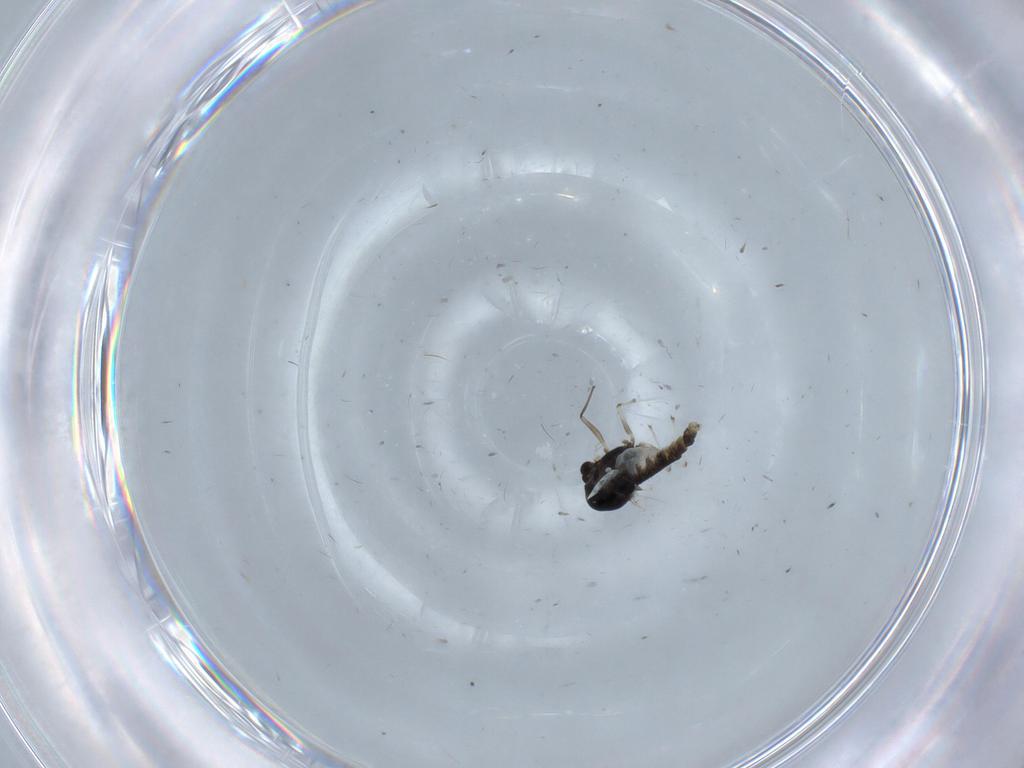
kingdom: Animalia
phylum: Arthropoda
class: Insecta
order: Diptera
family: Chironomidae
